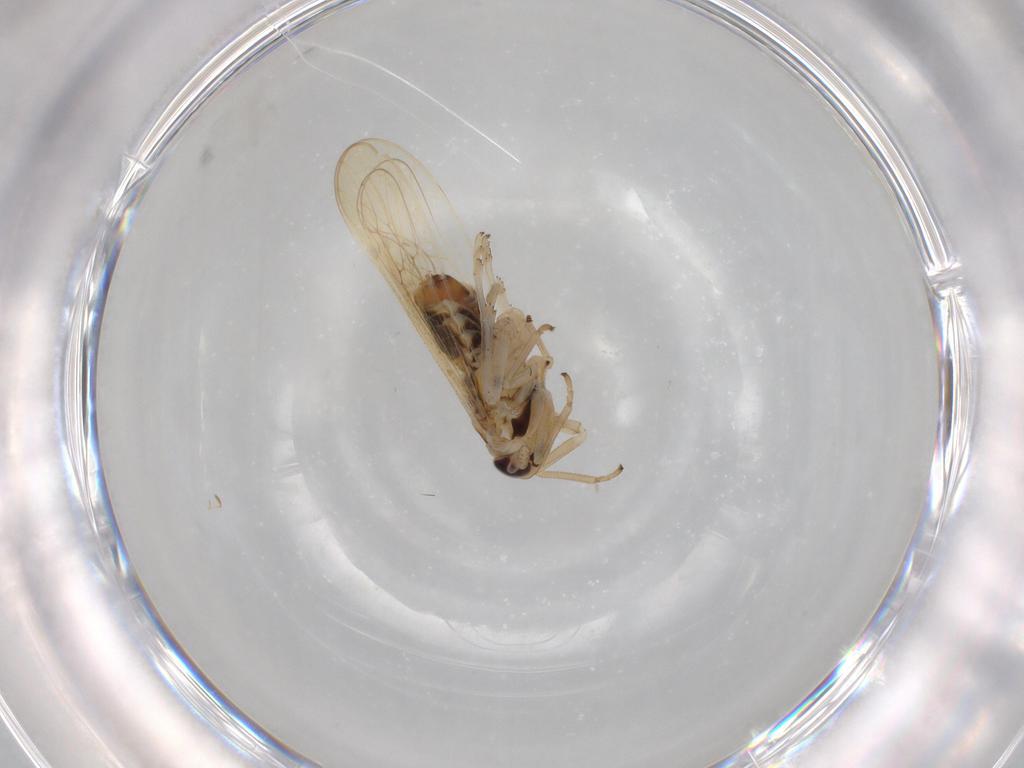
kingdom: Animalia
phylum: Arthropoda
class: Insecta
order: Hemiptera
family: Delphacidae
